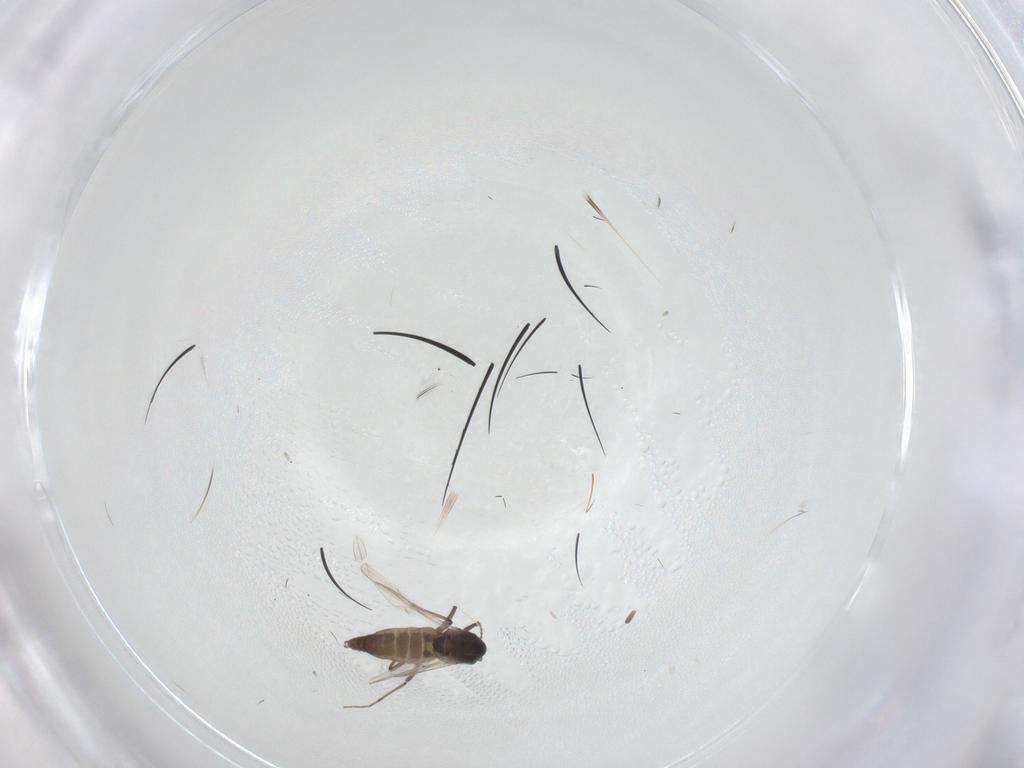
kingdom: Animalia
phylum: Arthropoda
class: Insecta
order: Diptera
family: Chironomidae
